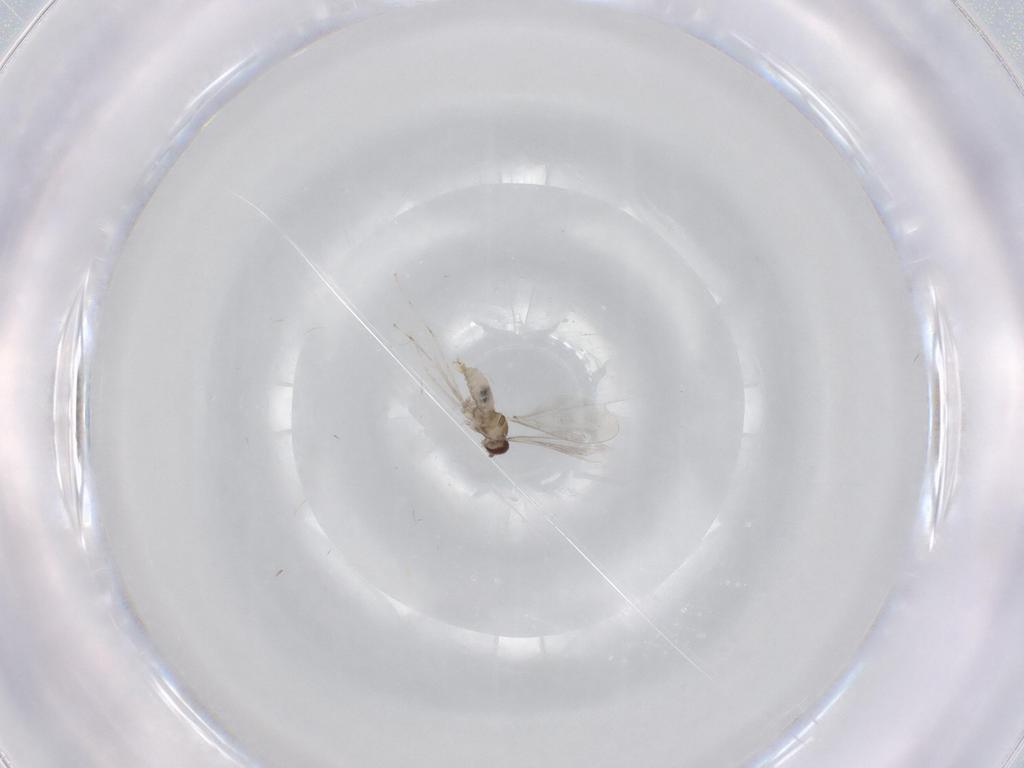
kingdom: Animalia
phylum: Arthropoda
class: Insecta
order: Diptera
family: Cecidomyiidae
